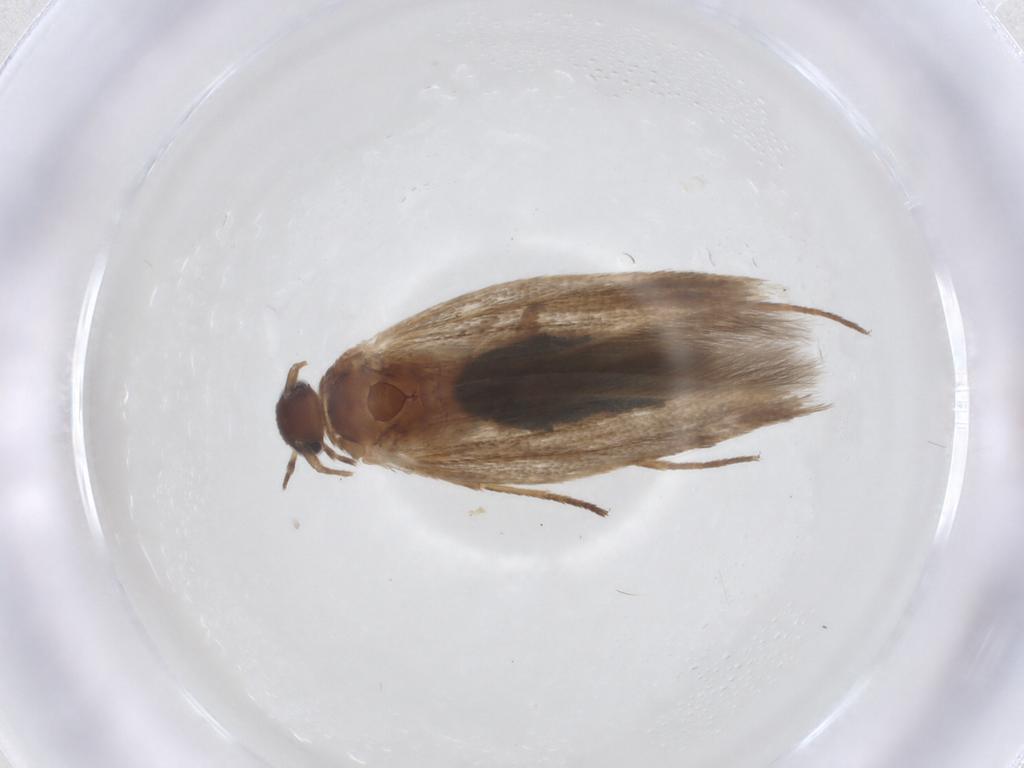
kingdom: Animalia
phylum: Arthropoda
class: Insecta
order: Lepidoptera
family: Cosmopterigidae
